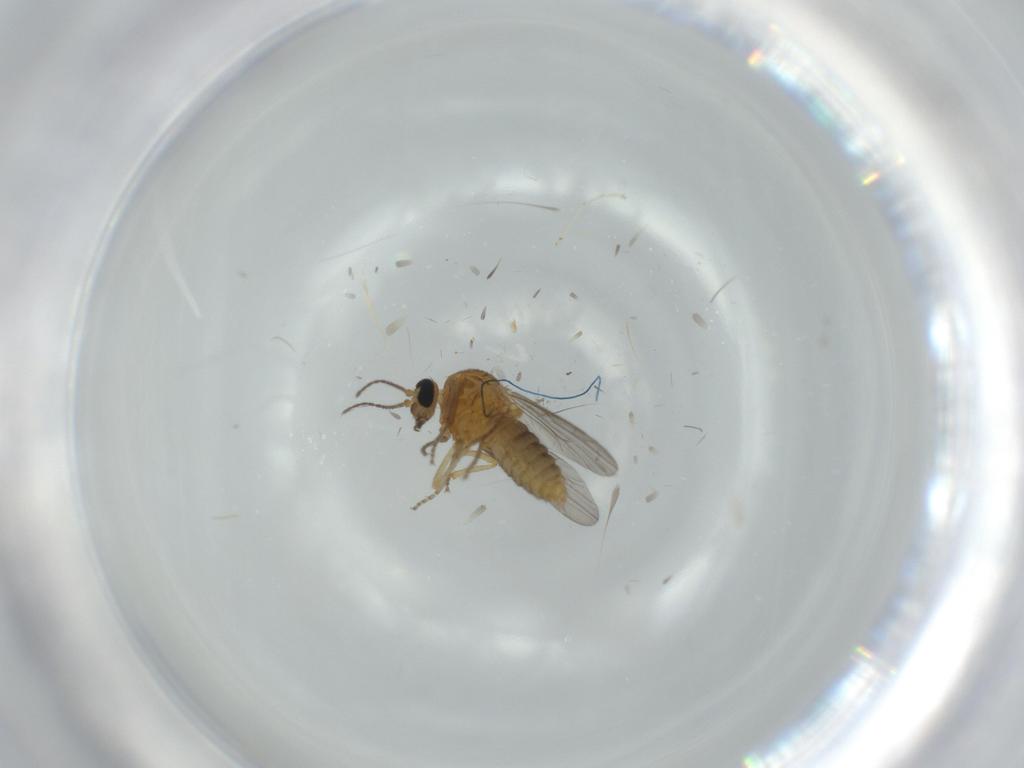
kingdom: Animalia
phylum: Arthropoda
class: Insecta
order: Diptera
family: Ceratopogonidae
